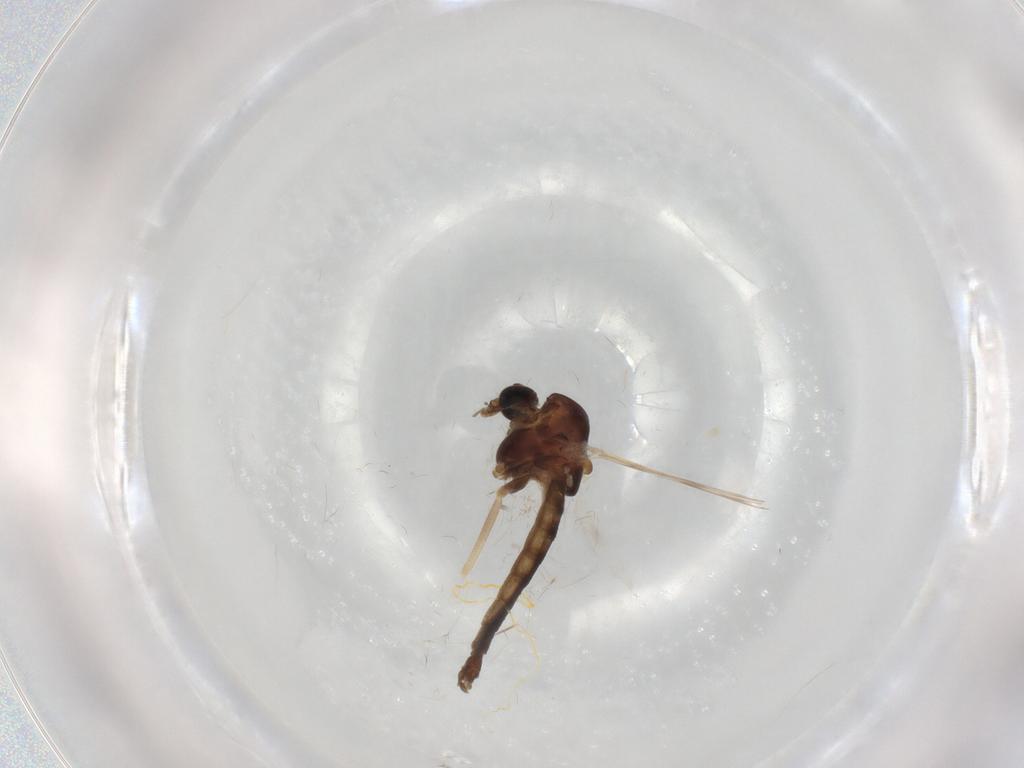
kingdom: Animalia
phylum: Arthropoda
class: Insecta
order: Diptera
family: Chironomidae
